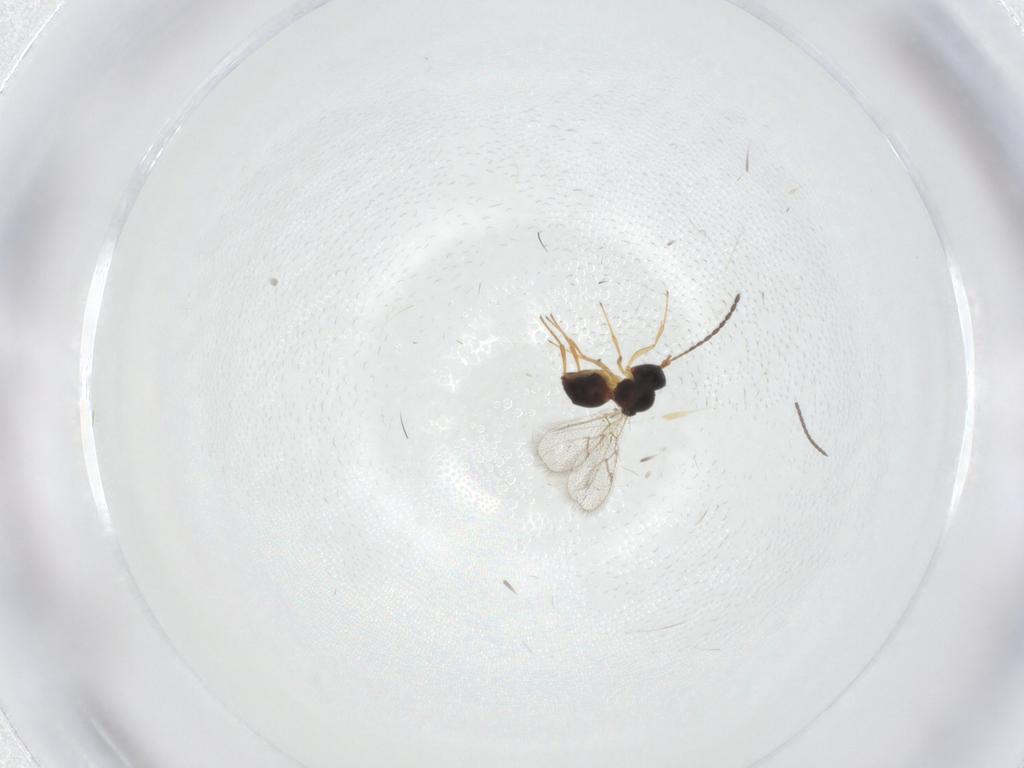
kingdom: Animalia
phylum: Arthropoda
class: Insecta
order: Hymenoptera
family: Figitidae
